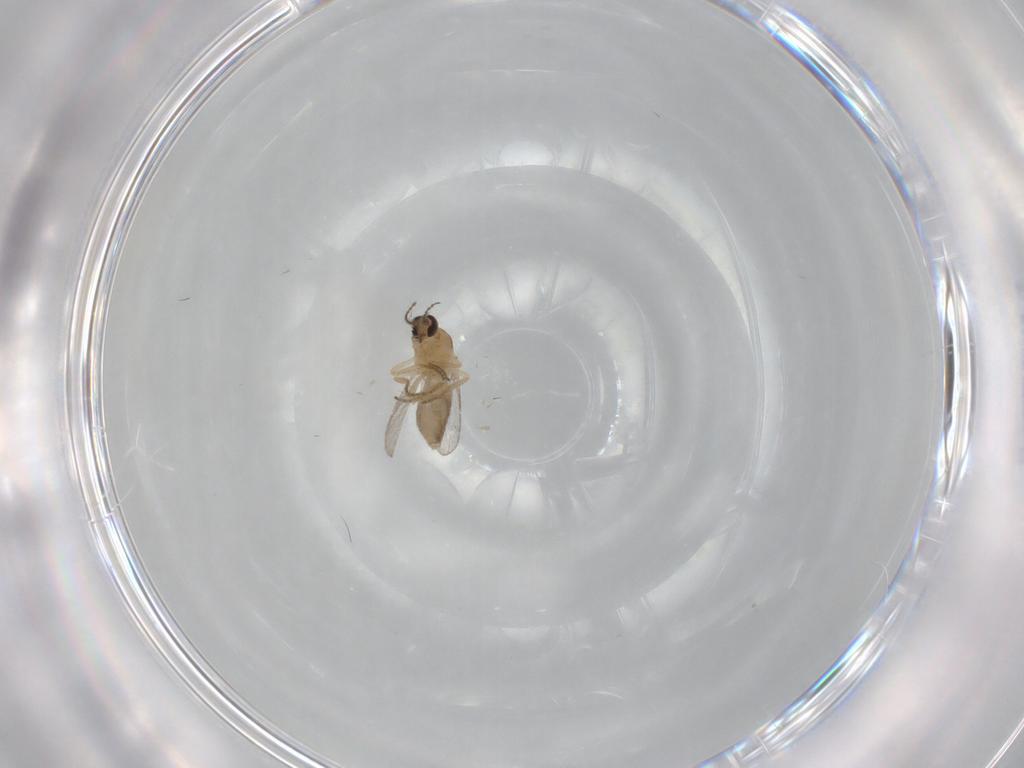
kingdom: Animalia
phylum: Arthropoda
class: Insecta
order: Diptera
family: Ceratopogonidae
